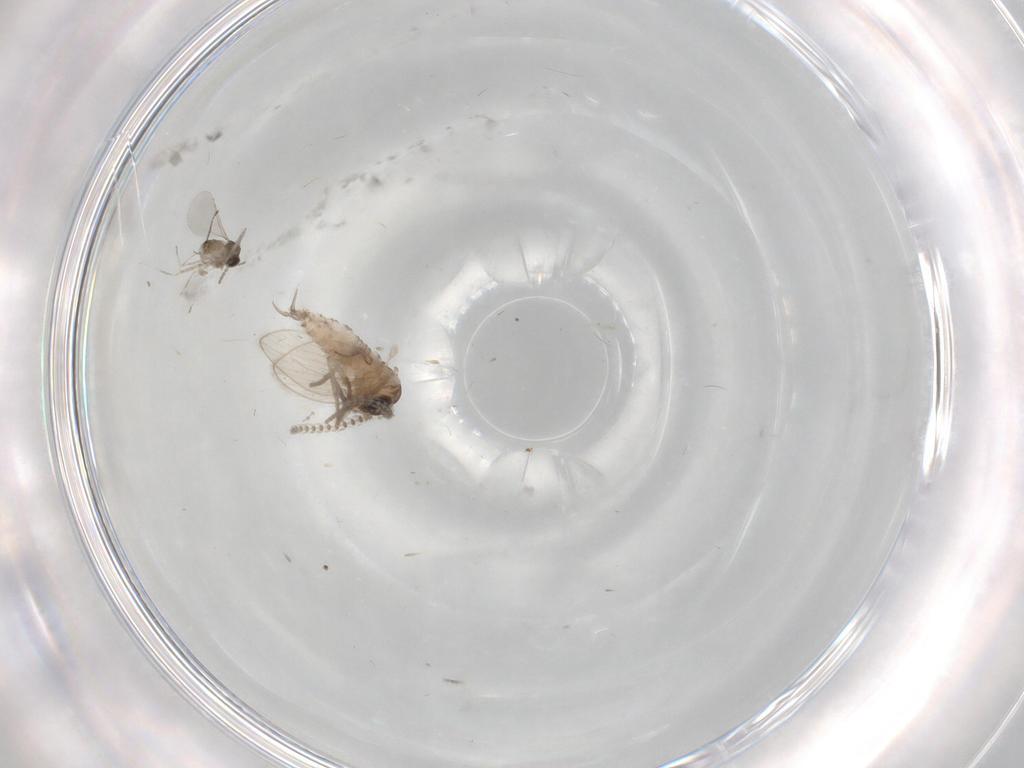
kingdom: Animalia
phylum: Arthropoda
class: Insecta
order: Diptera
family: Psychodidae
